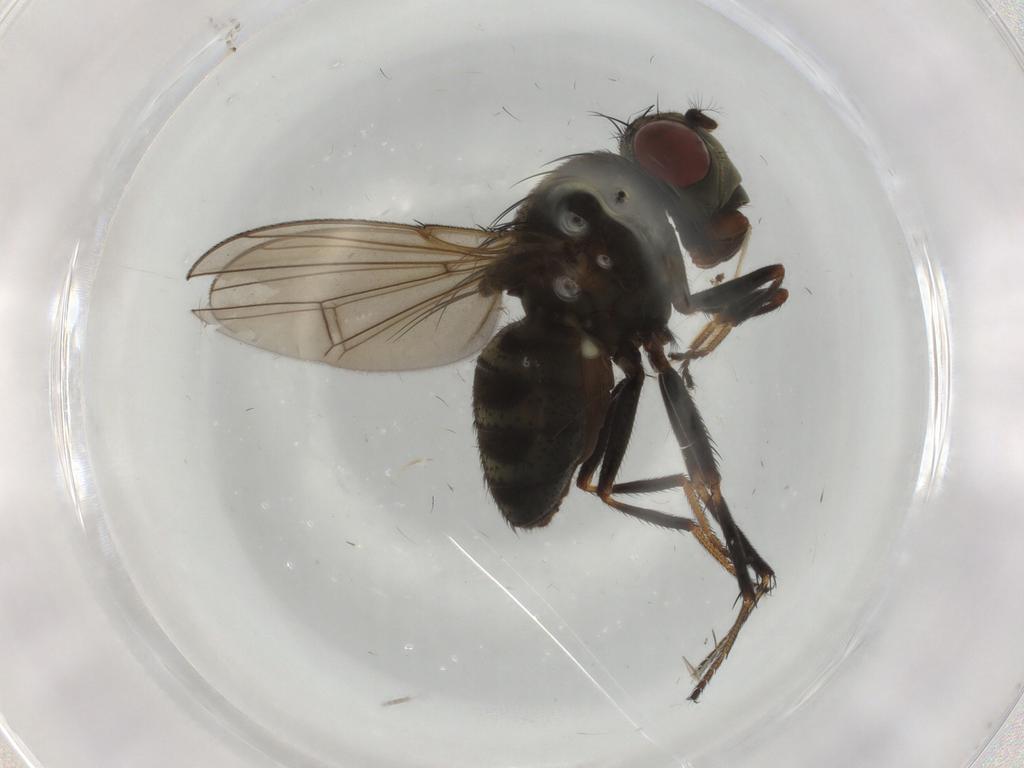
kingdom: Animalia
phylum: Arthropoda
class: Insecta
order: Diptera
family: Ephydridae
